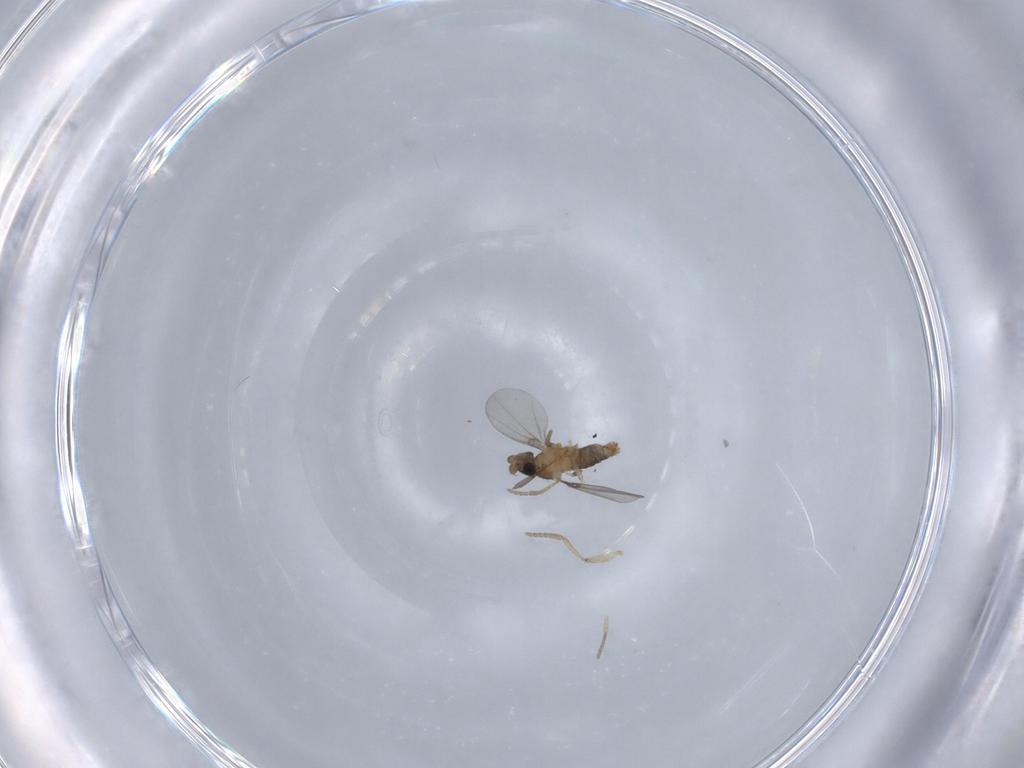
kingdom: Animalia
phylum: Arthropoda
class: Insecta
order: Diptera
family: Phoridae
